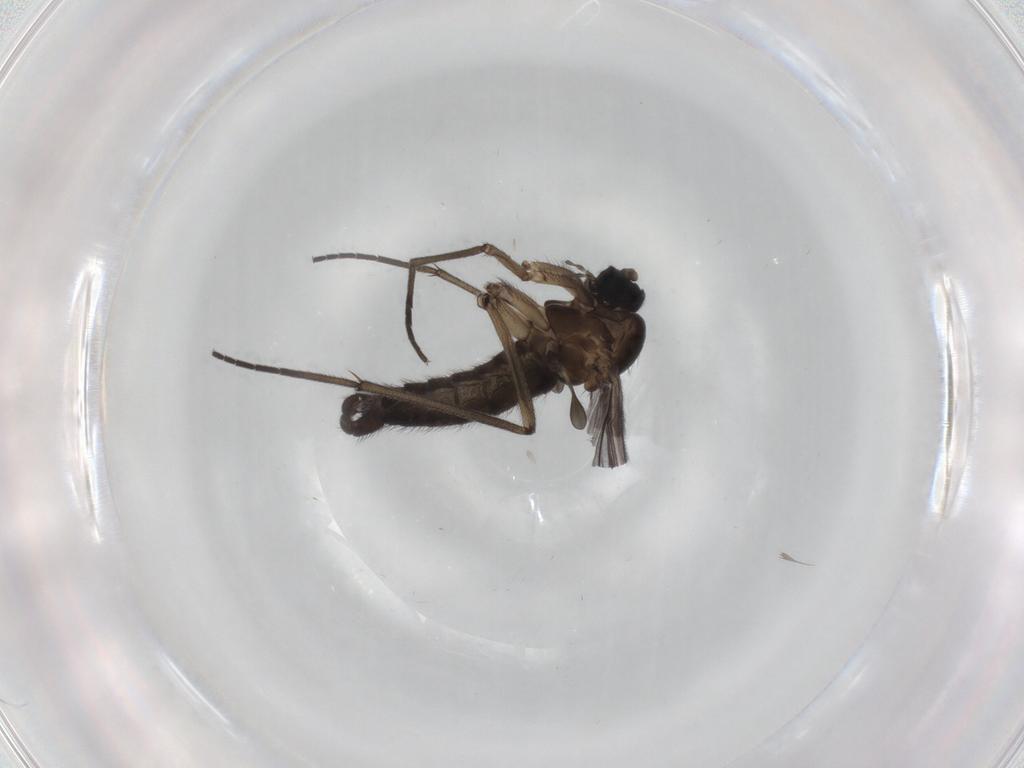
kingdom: Animalia
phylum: Arthropoda
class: Insecta
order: Diptera
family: Sciaridae
